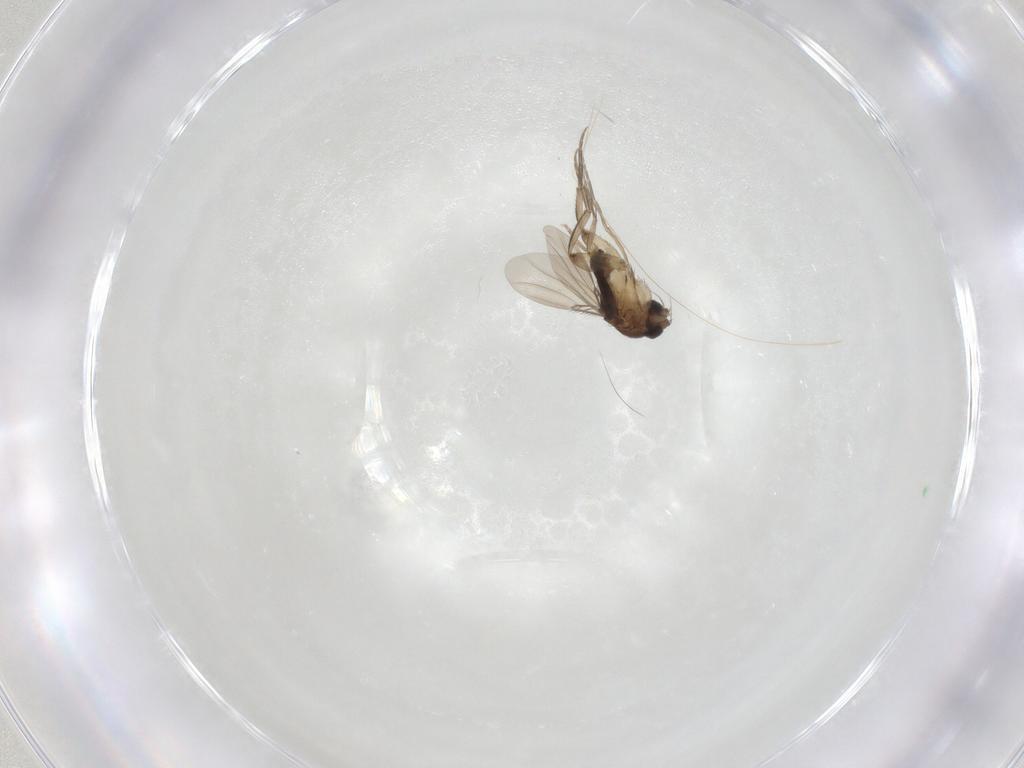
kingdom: Animalia
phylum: Arthropoda
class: Insecta
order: Diptera
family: Phoridae
